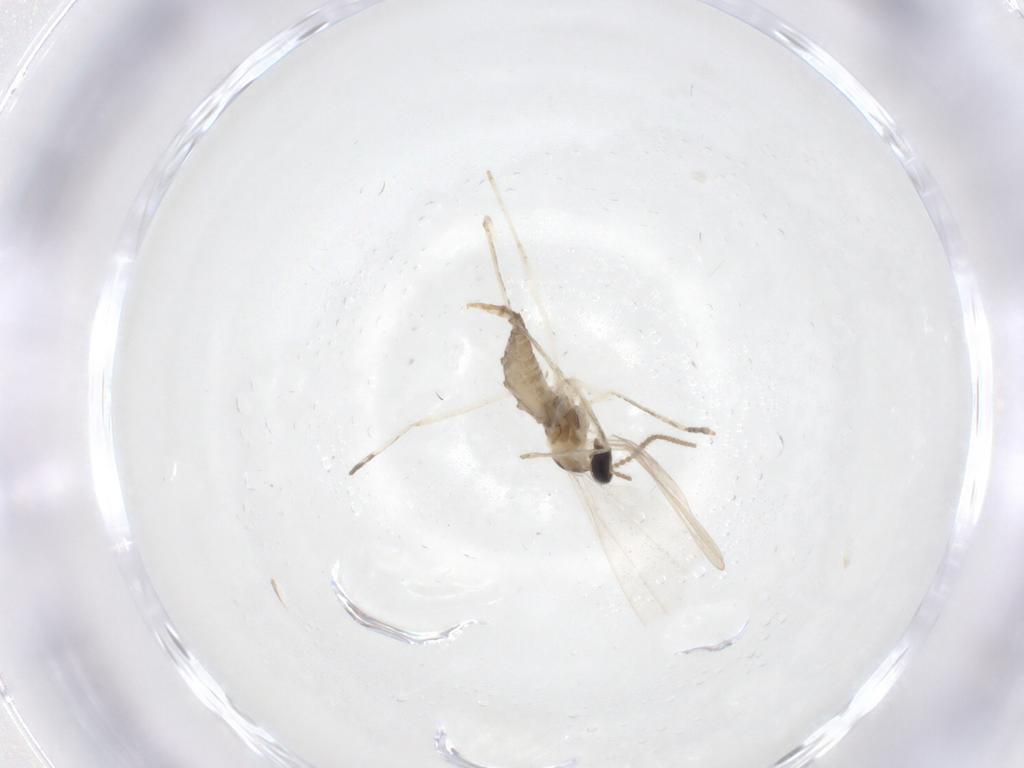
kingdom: Animalia
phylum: Arthropoda
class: Insecta
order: Diptera
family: Cecidomyiidae
